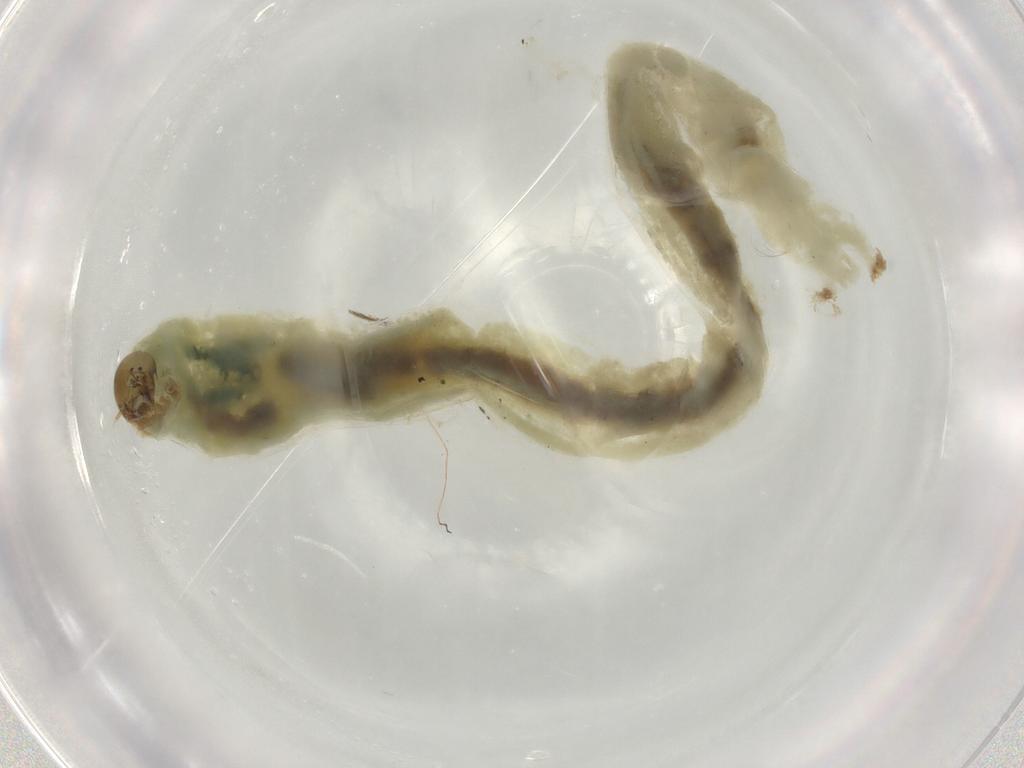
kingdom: Animalia
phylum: Arthropoda
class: Insecta
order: Diptera
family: Chironomidae
